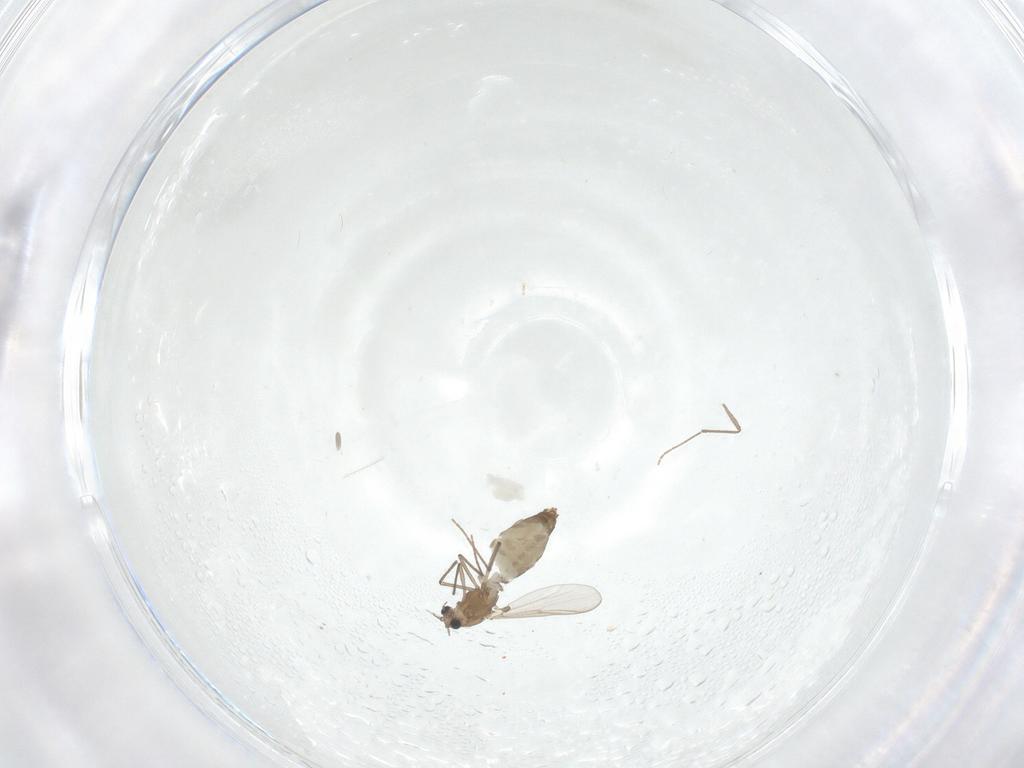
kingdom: Animalia
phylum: Arthropoda
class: Insecta
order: Diptera
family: Chironomidae
